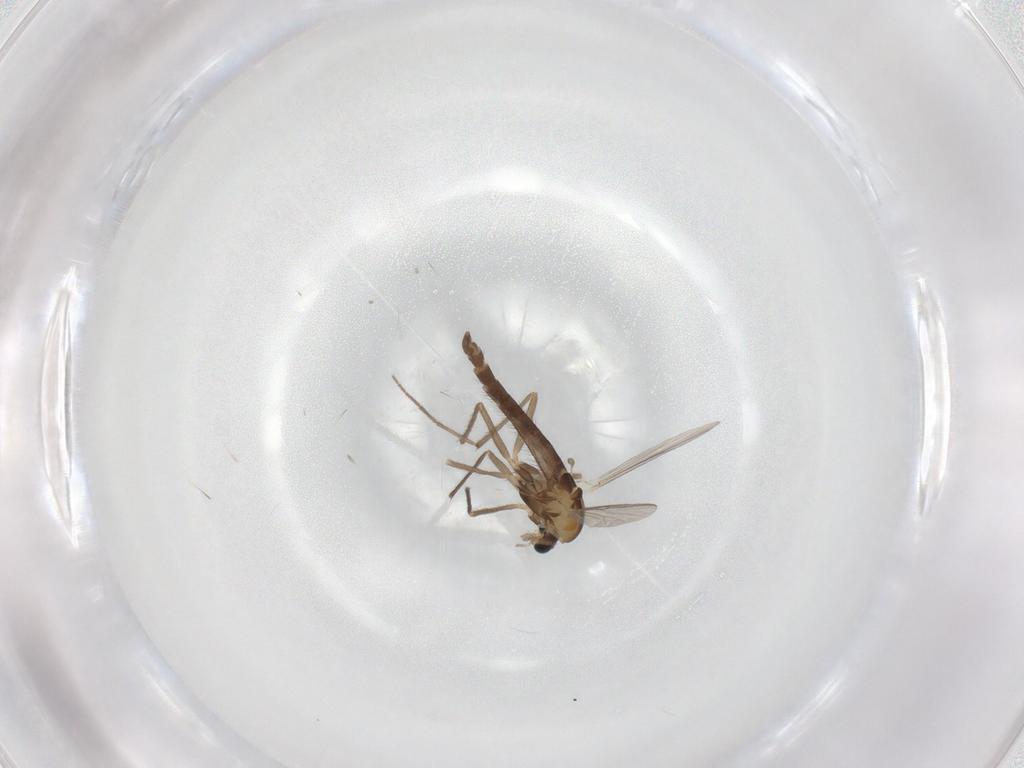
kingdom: Animalia
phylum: Arthropoda
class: Insecta
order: Diptera
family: Chironomidae
